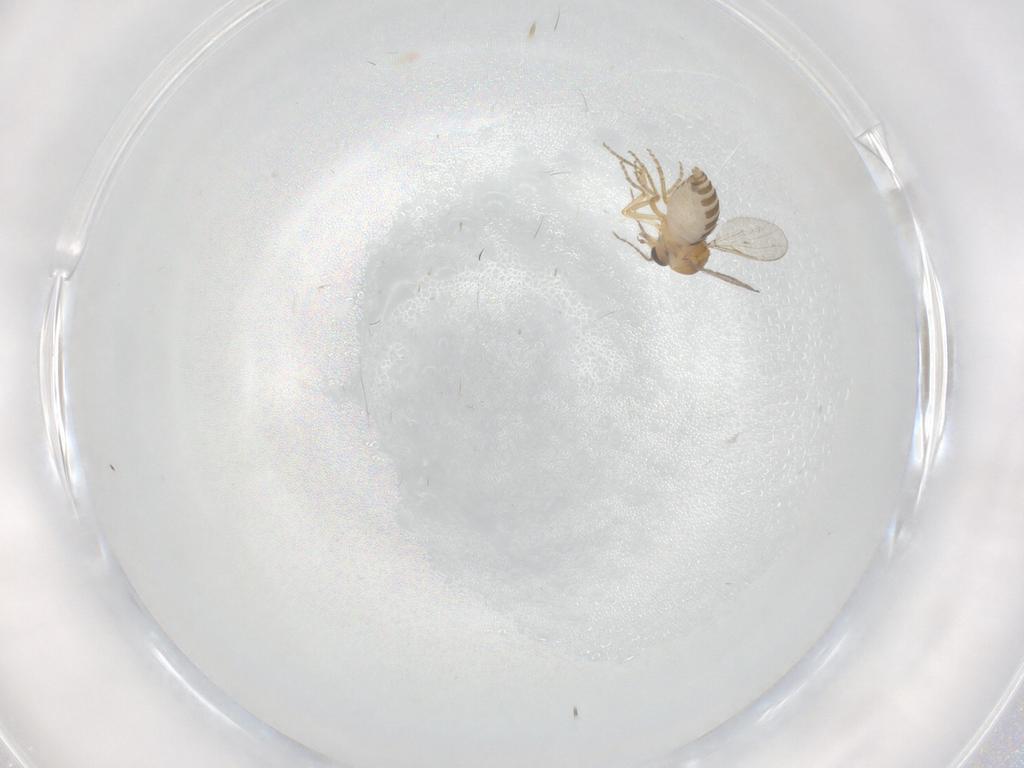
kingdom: Animalia
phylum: Arthropoda
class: Insecta
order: Diptera
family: Ceratopogonidae
